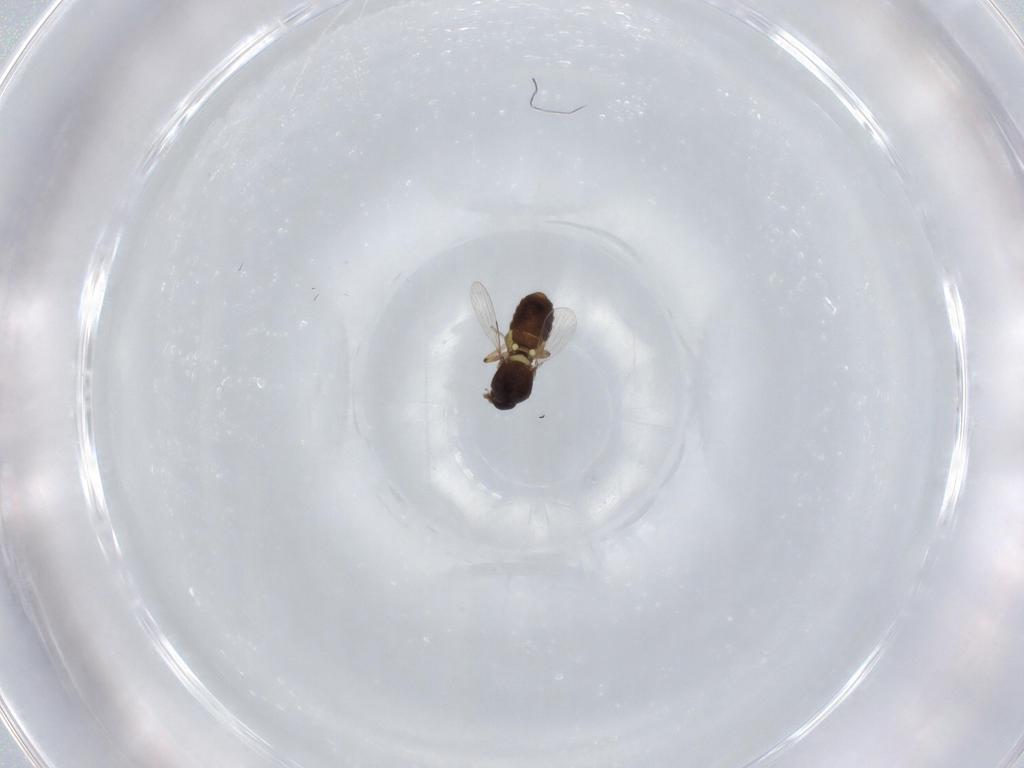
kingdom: Animalia
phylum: Arthropoda
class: Insecta
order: Diptera
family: Ceratopogonidae
